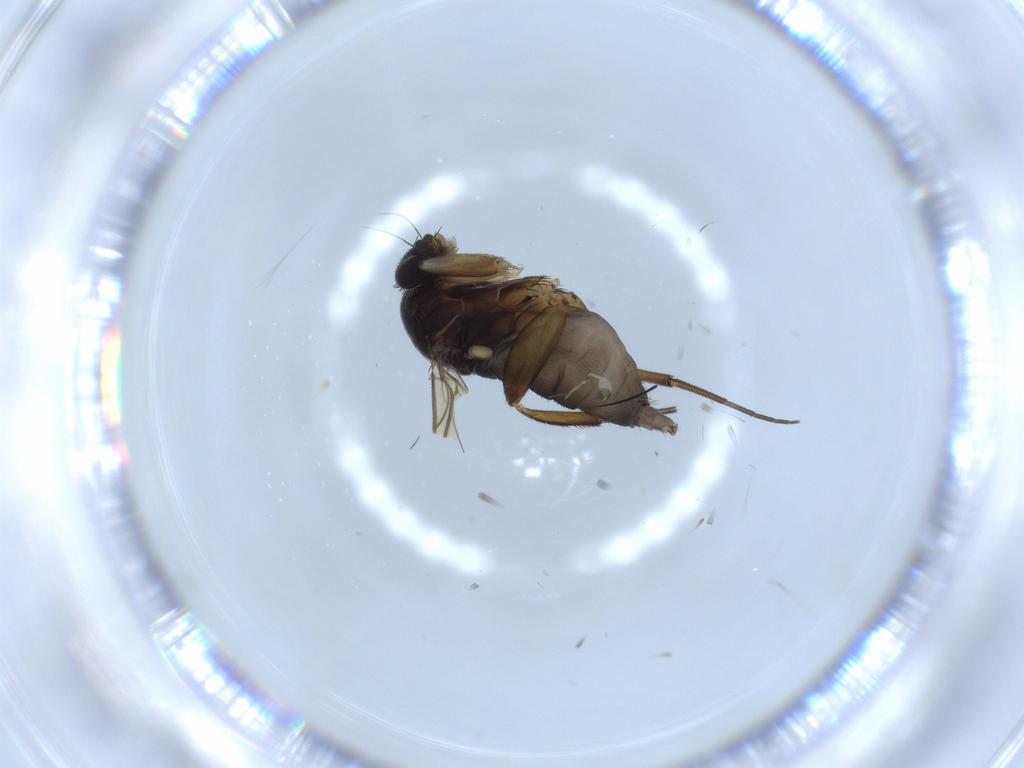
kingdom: Animalia
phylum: Arthropoda
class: Insecta
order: Diptera
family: Phoridae
